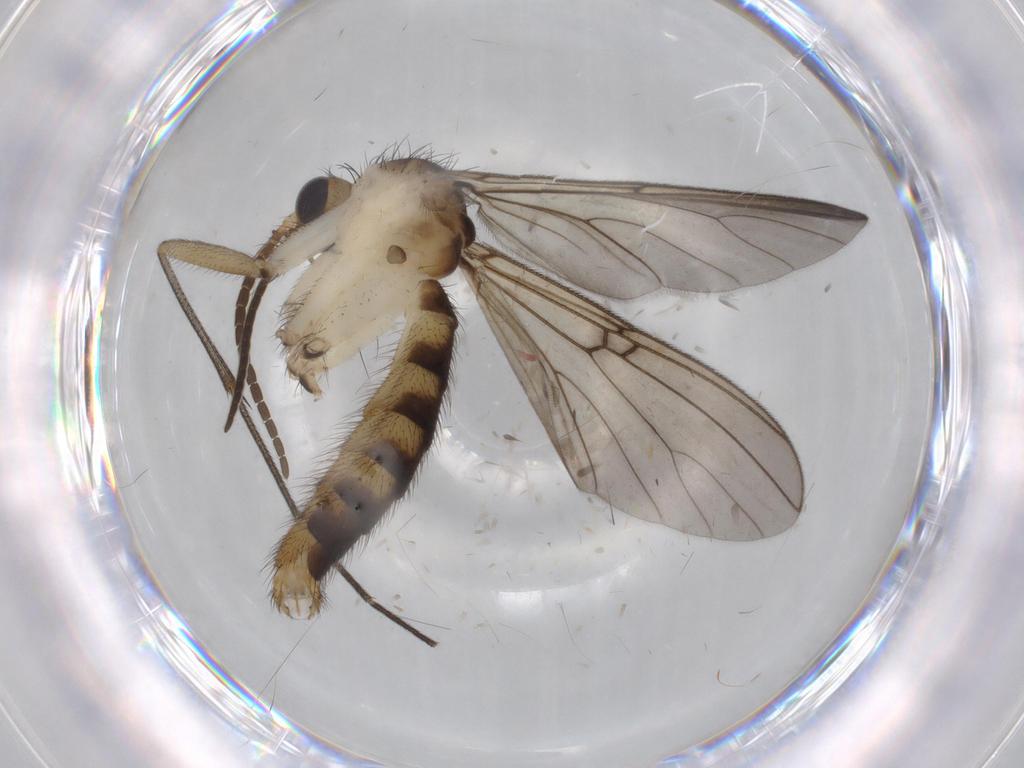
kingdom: Animalia
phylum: Arthropoda
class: Insecta
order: Diptera
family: Sciaridae
